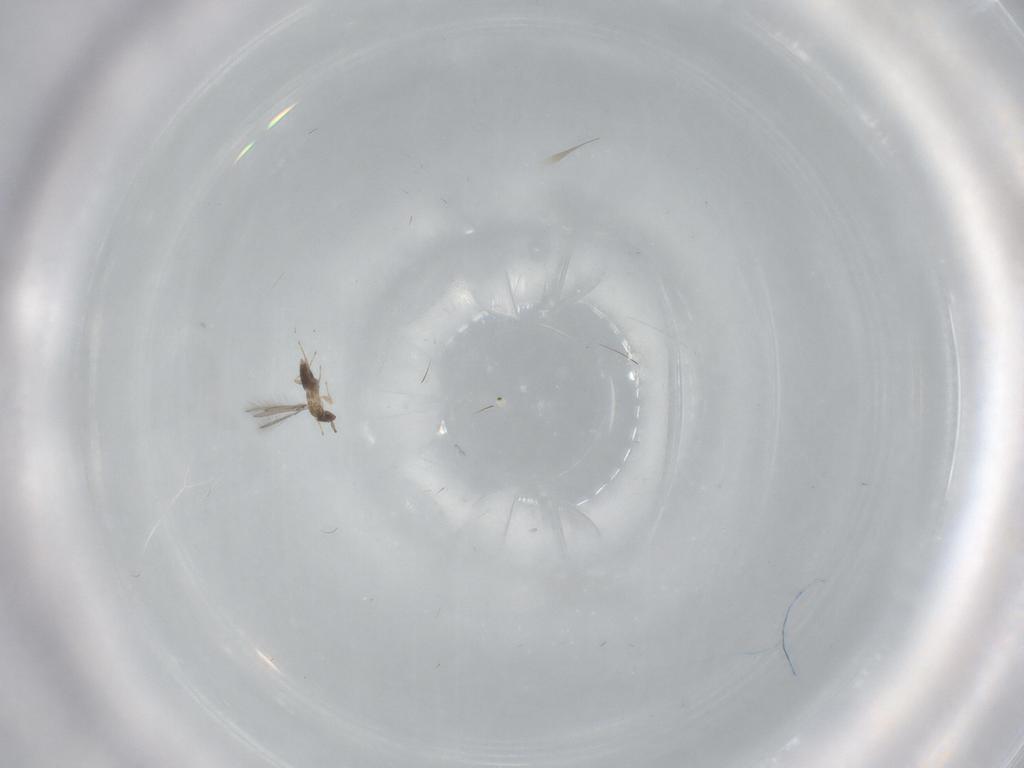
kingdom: Animalia
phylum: Arthropoda
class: Insecta
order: Hymenoptera
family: Mymaridae
